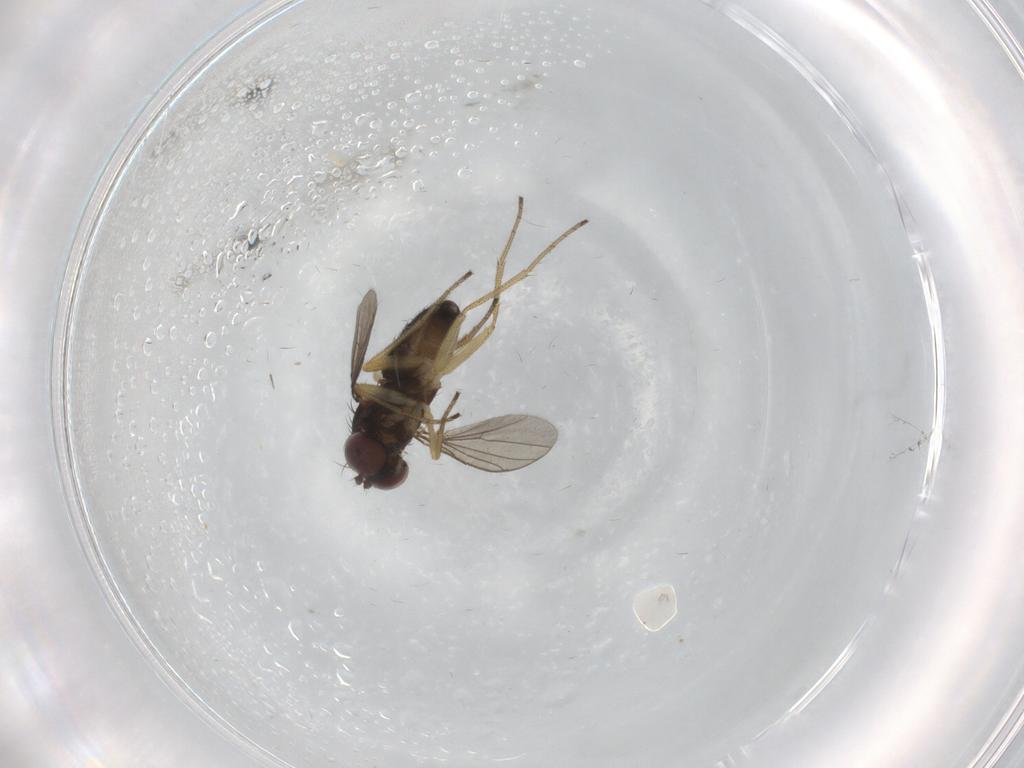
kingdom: Animalia
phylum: Arthropoda
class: Insecta
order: Diptera
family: Dolichopodidae
